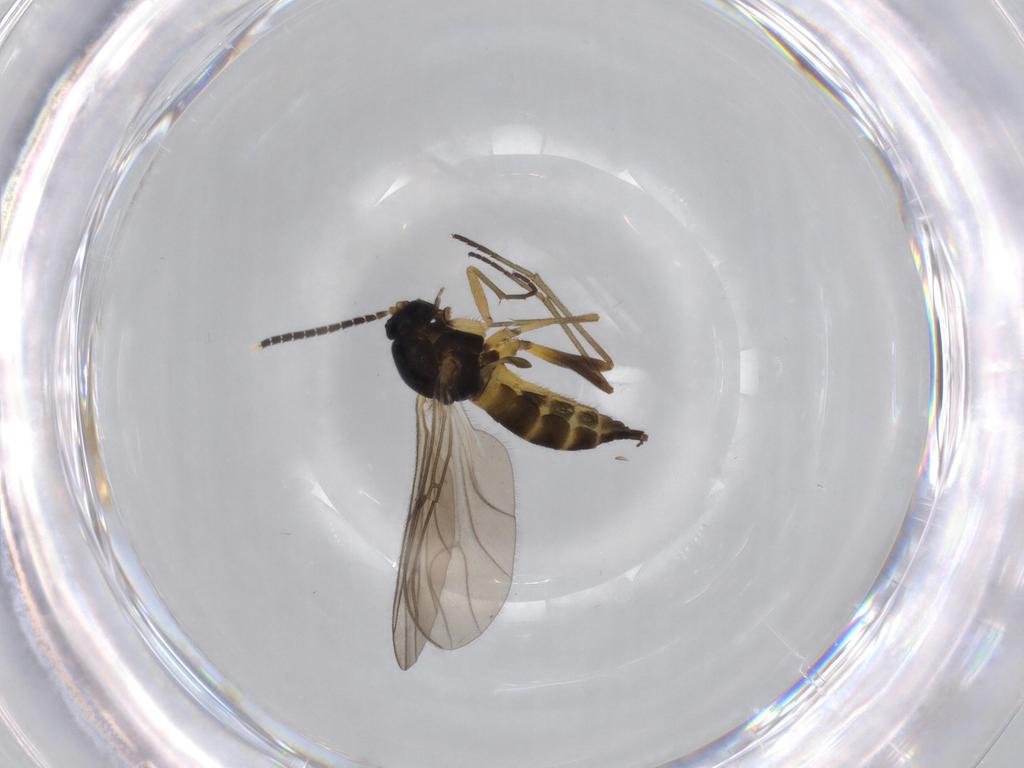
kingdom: Animalia
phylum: Arthropoda
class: Insecta
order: Diptera
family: Sciaridae
